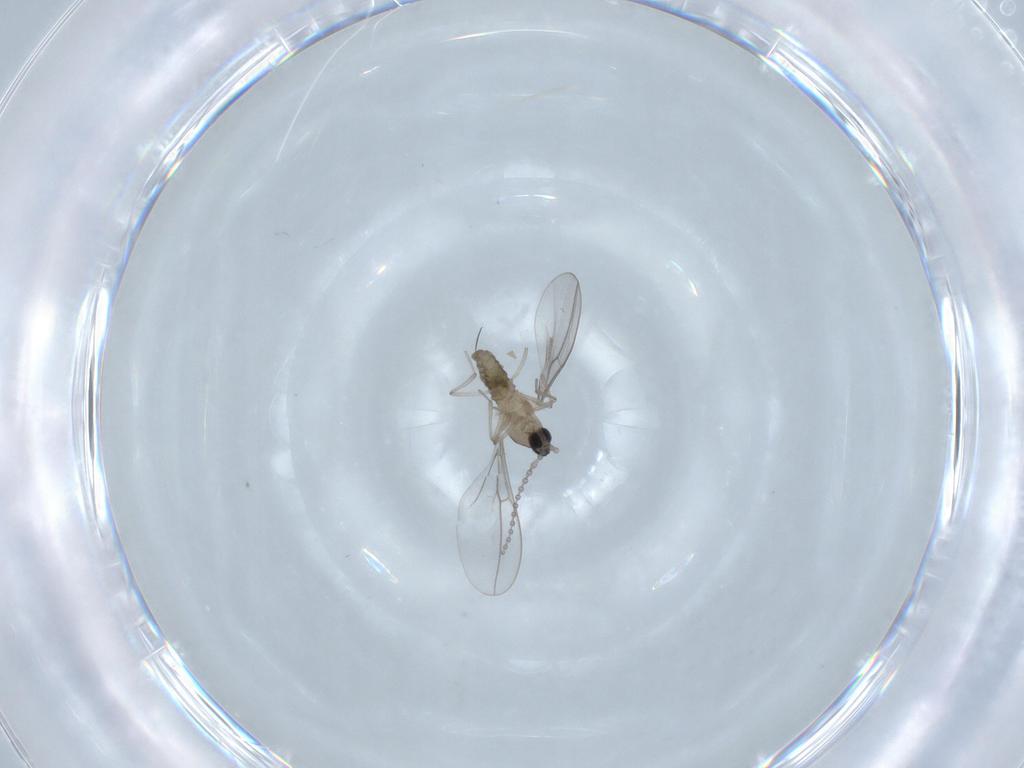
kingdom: Animalia
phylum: Arthropoda
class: Insecta
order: Diptera
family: Cecidomyiidae
